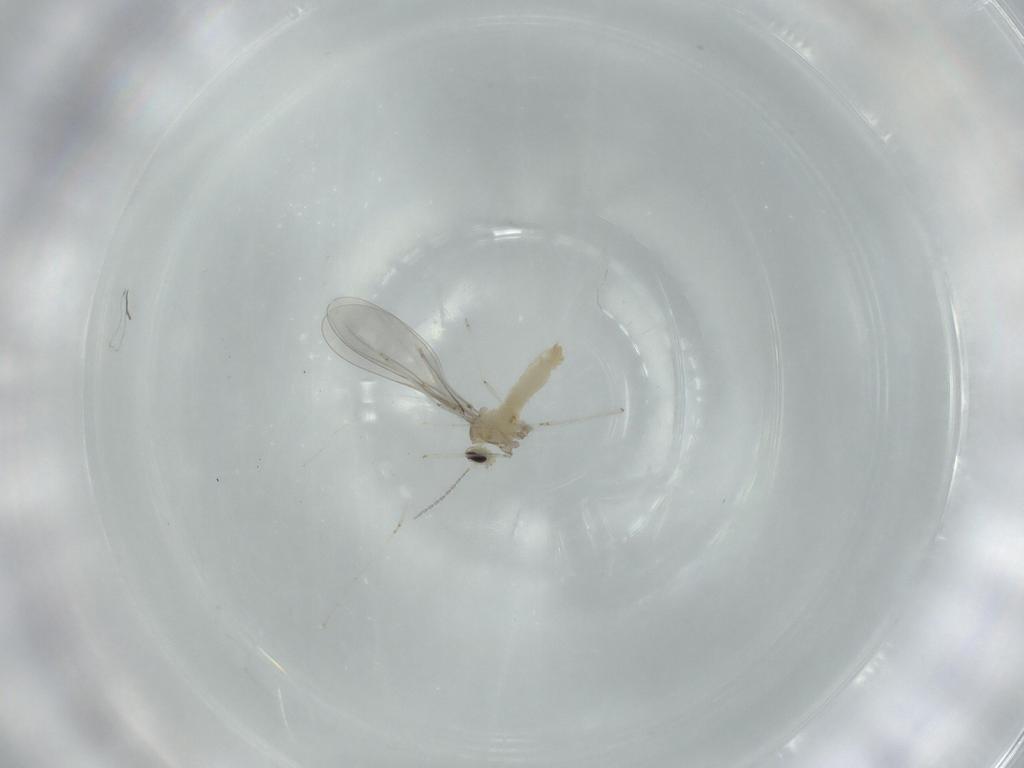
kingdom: Animalia
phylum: Arthropoda
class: Insecta
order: Diptera
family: Cecidomyiidae
